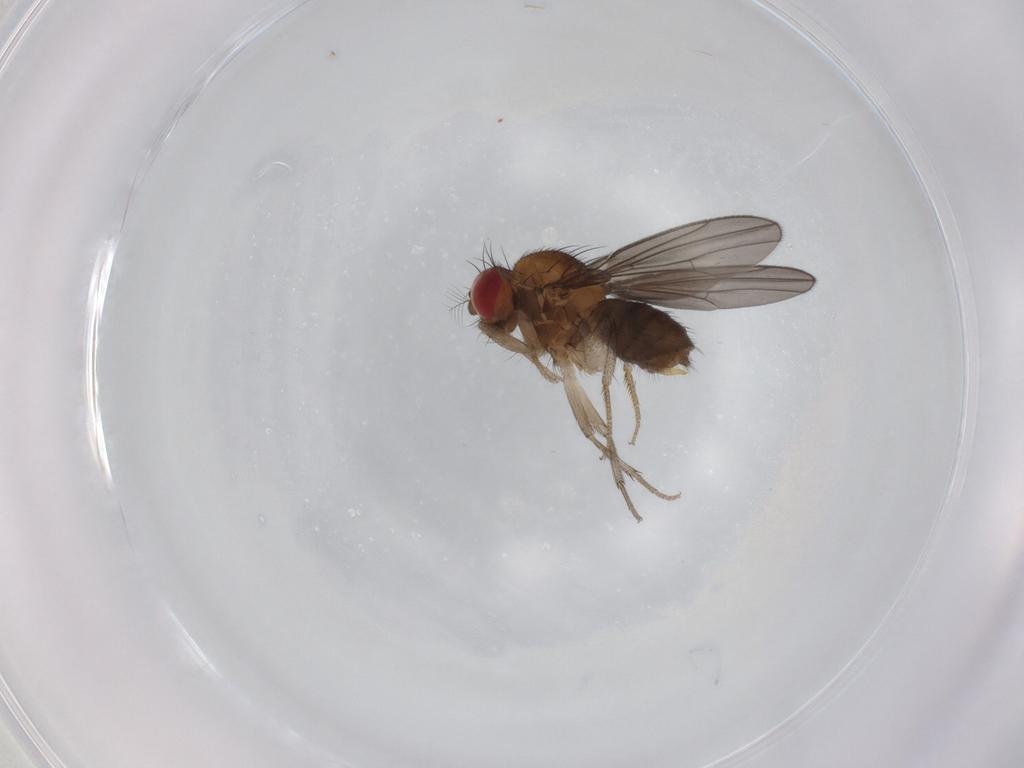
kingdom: Animalia
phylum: Arthropoda
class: Insecta
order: Diptera
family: Drosophilidae
